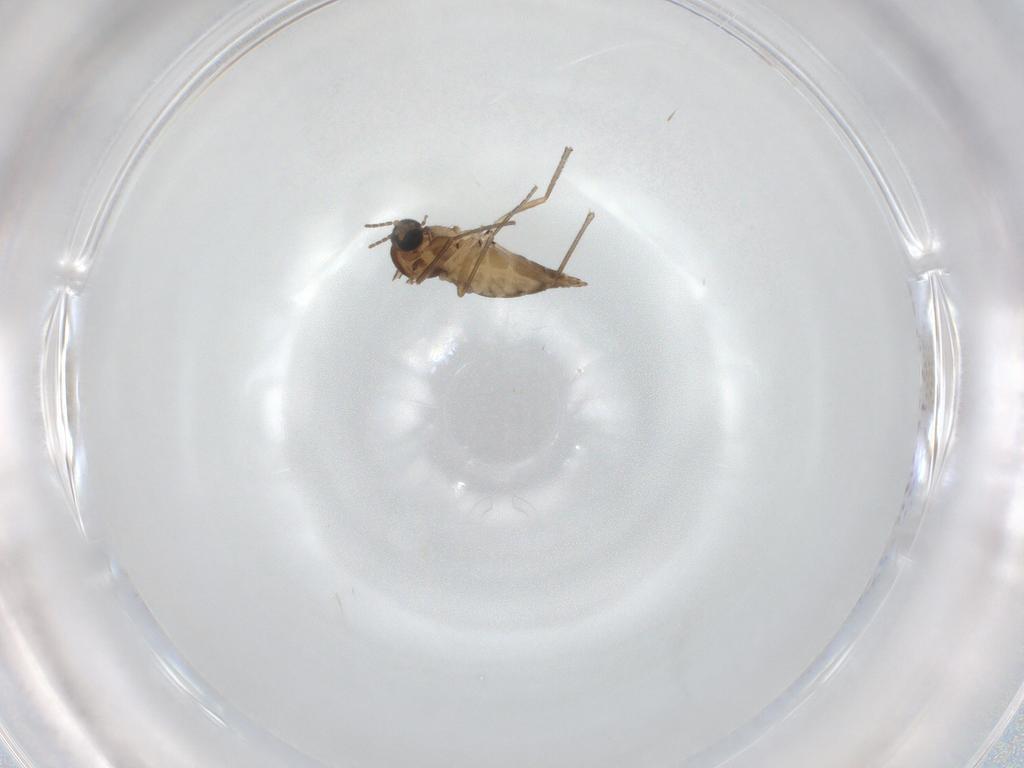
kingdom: Animalia
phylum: Arthropoda
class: Insecta
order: Diptera
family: Sciaridae
